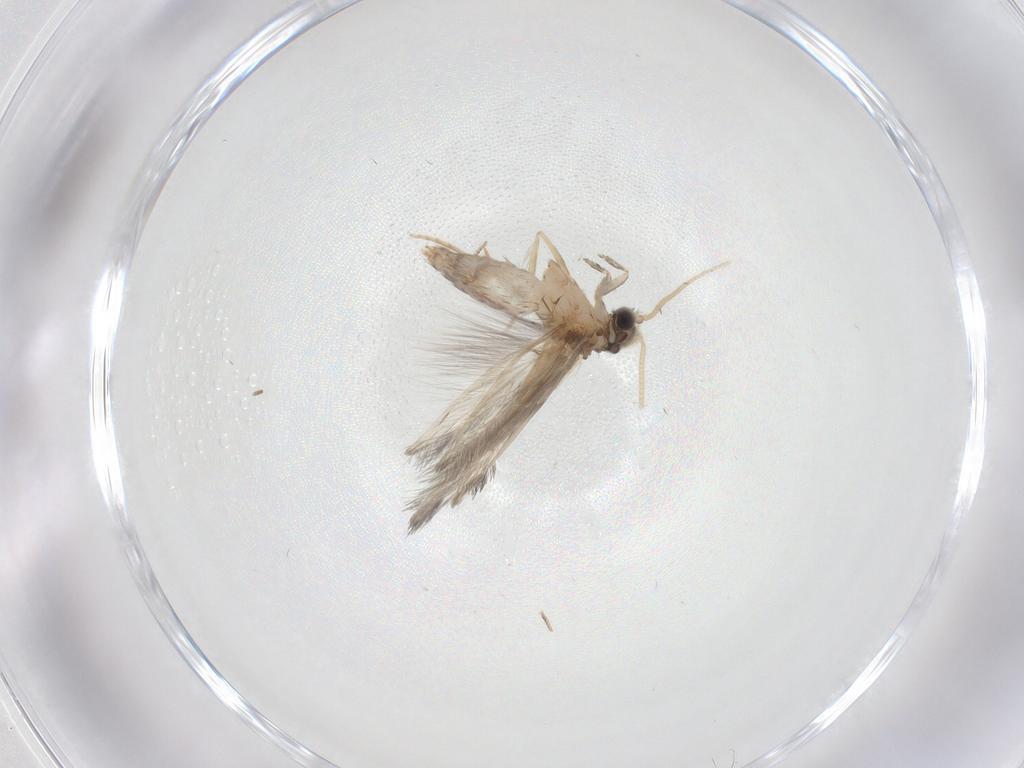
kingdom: Animalia
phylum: Arthropoda
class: Insecta
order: Trichoptera
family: Hydroptilidae
